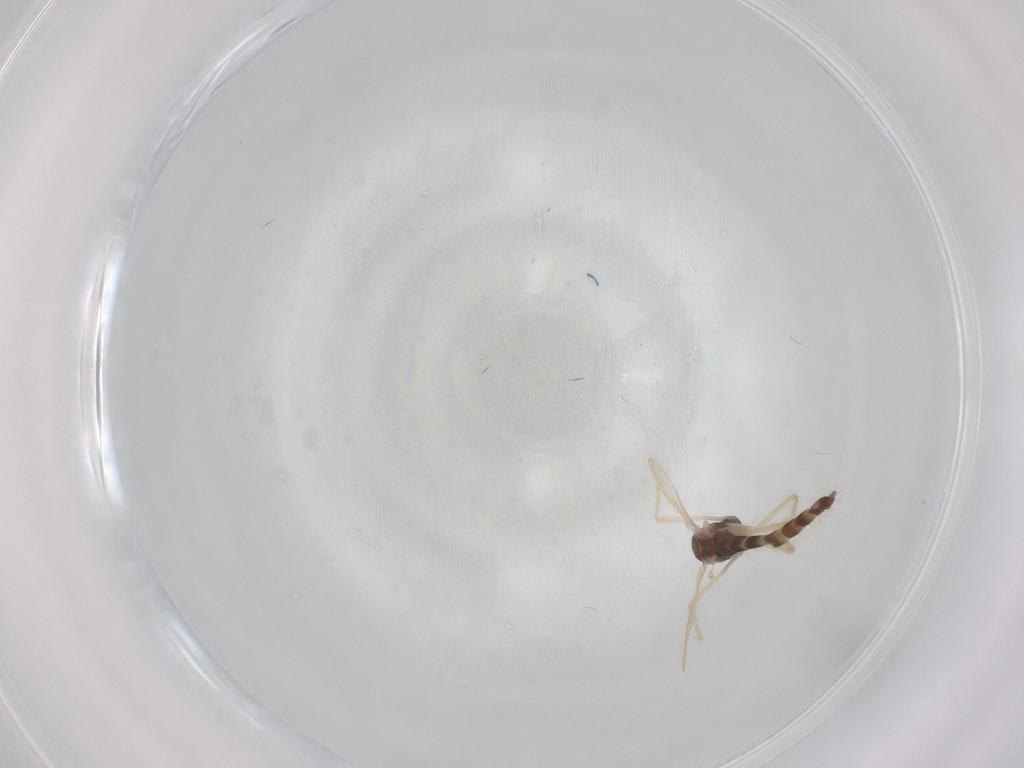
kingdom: Animalia
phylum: Arthropoda
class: Insecta
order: Diptera
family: Chironomidae
